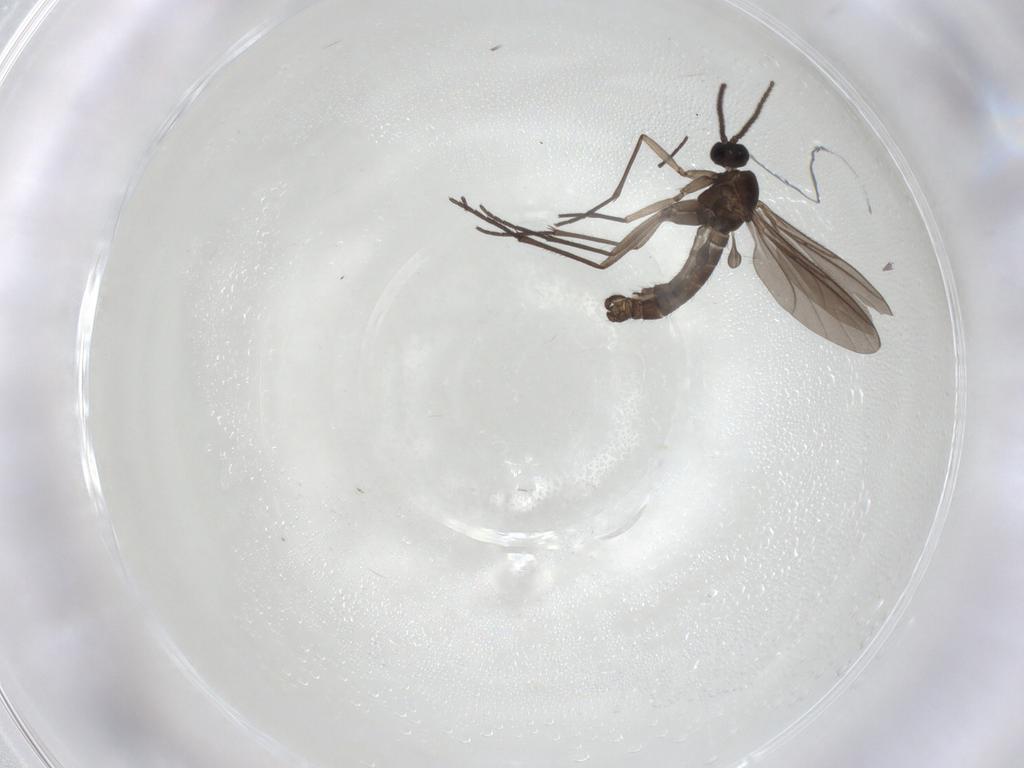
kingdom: Animalia
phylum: Arthropoda
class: Insecta
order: Diptera
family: Sciaridae
